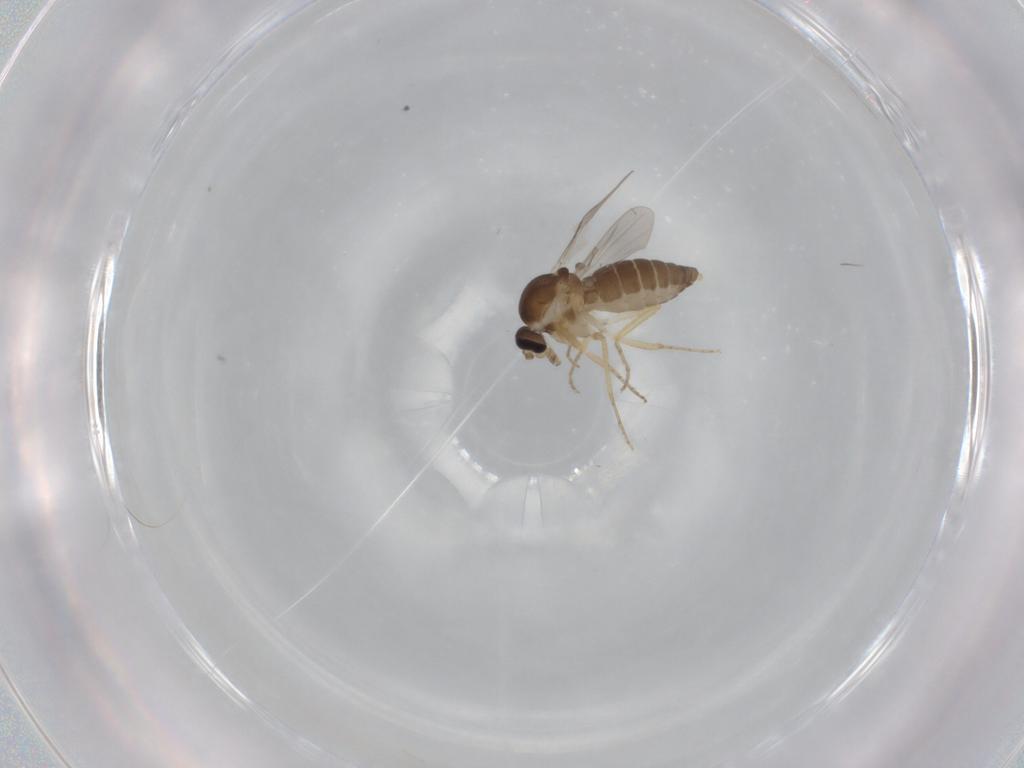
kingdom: Animalia
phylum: Arthropoda
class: Insecta
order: Diptera
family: Ceratopogonidae
